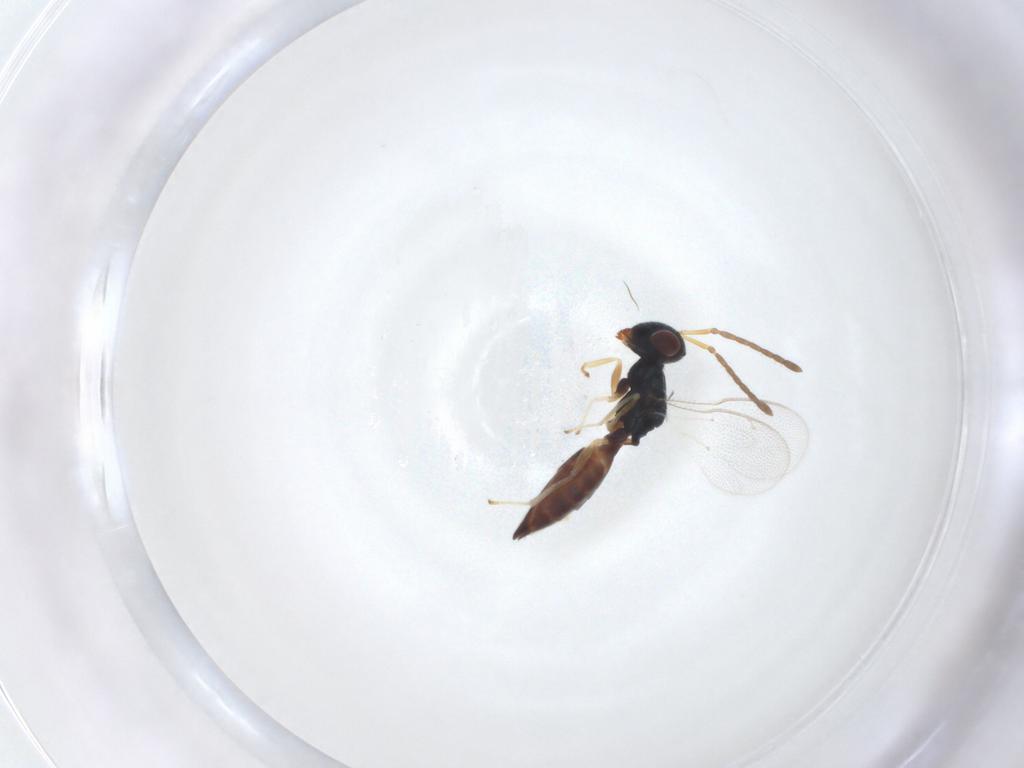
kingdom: Animalia
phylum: Arthropoda
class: Insecta
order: Hymenoptera
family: Eulophidae
